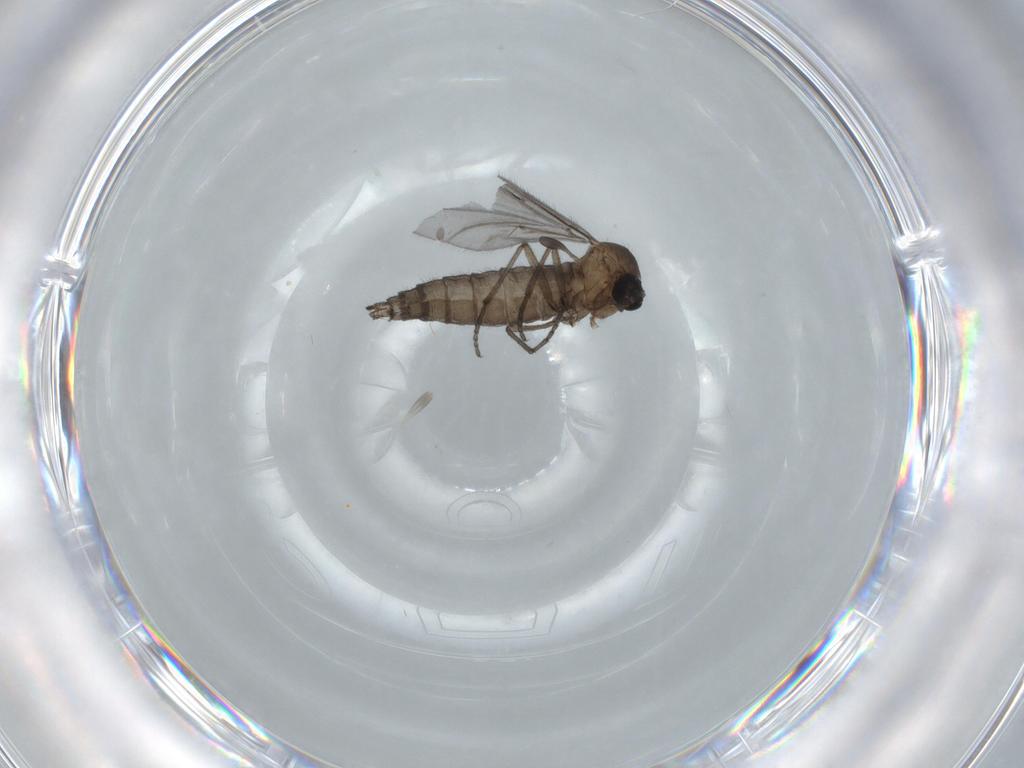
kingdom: Animalia
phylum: Arthropoda
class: Insecta
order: Diptera
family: Sciaridae
